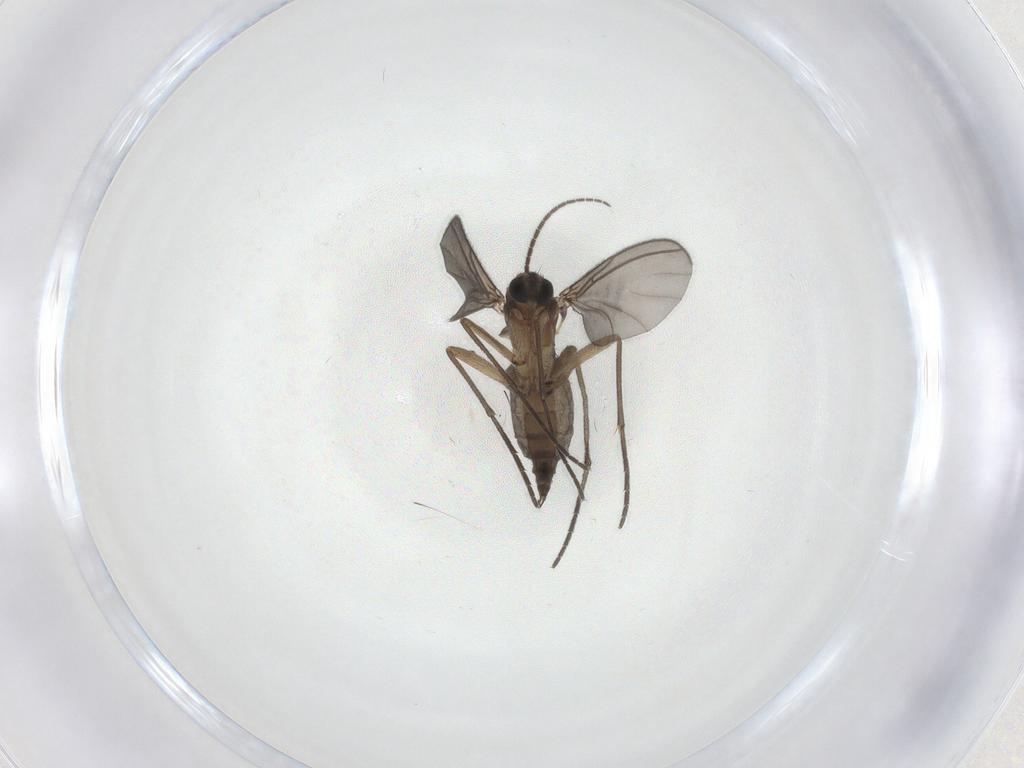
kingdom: Animalia
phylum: Arthropoda
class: Insecta
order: Diptera
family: Sciaridae
